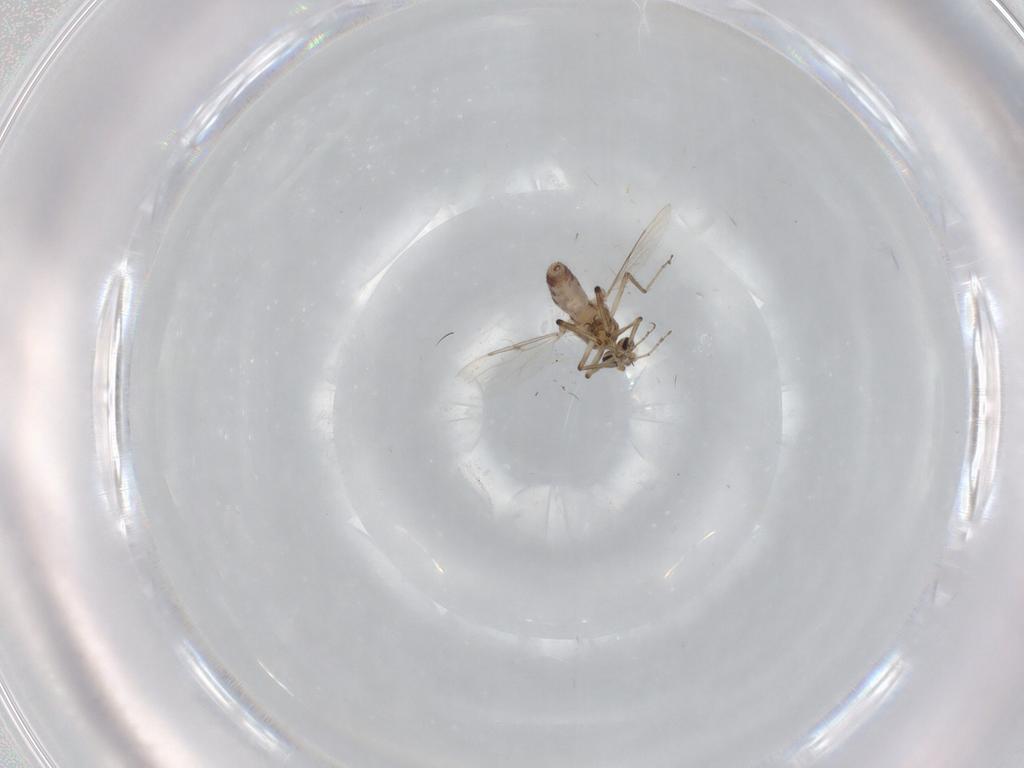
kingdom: Animalia
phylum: Arthropoda
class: Insecta
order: Diptera
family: Ceratopogonidae
